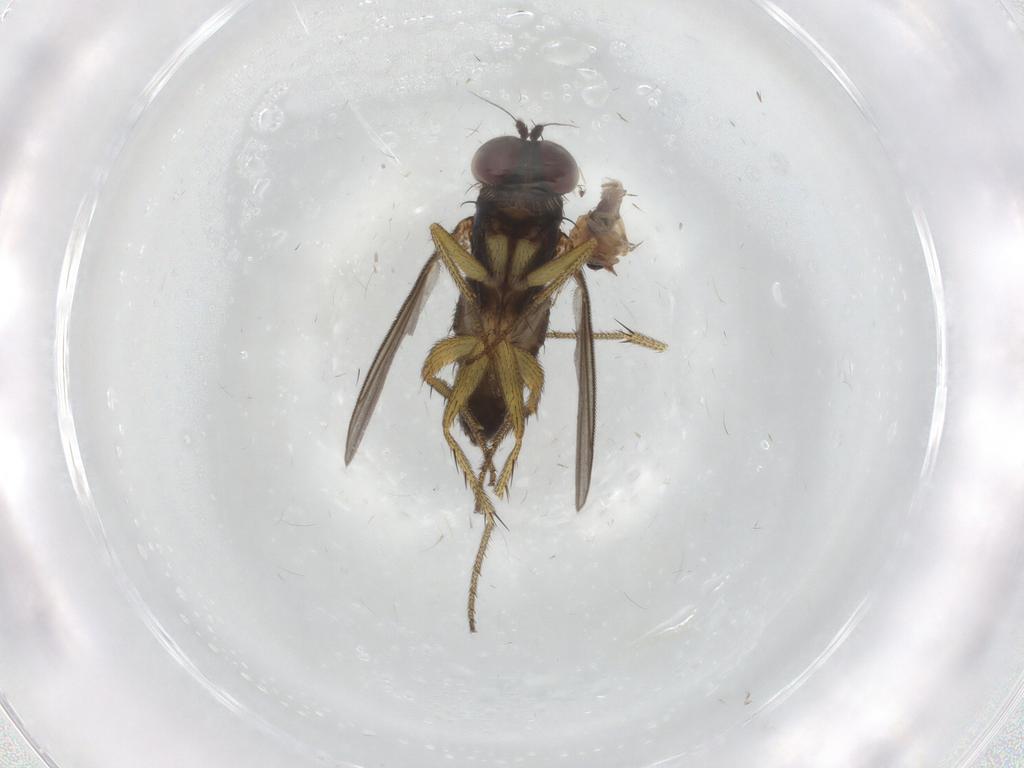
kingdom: Animalia
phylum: Arthropoda
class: Insecta
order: Diptera
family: Dolichopodidae
